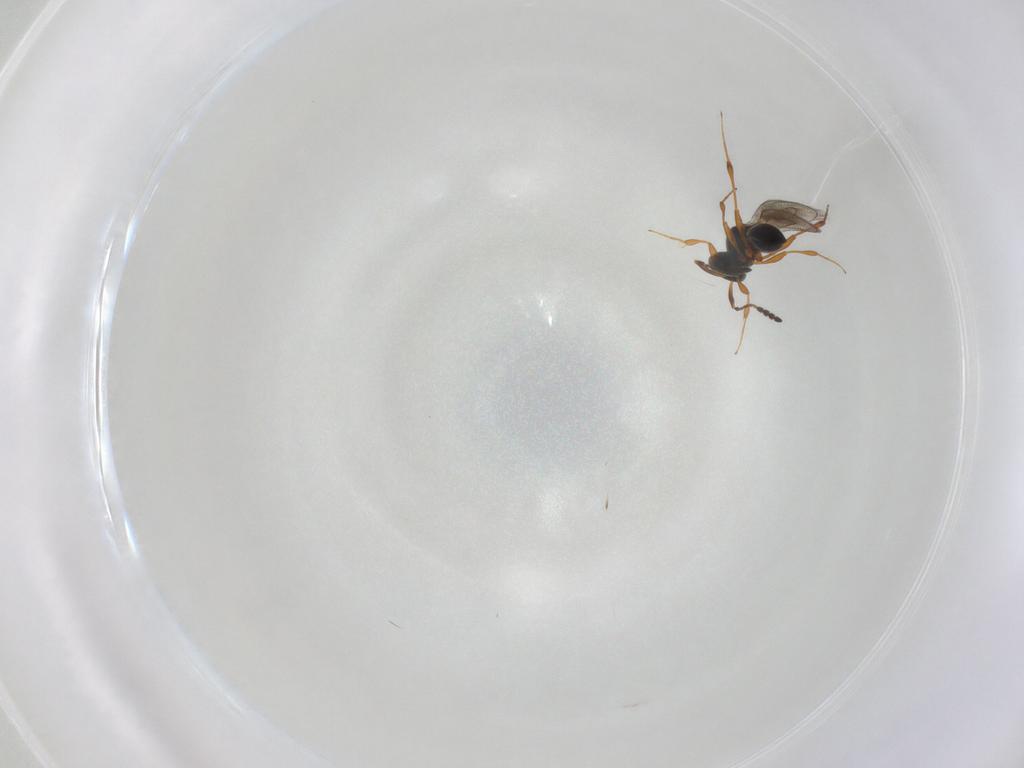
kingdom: Animalia
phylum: Arthropoda
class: Insecta
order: Hymenoptera
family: Platygastridae
